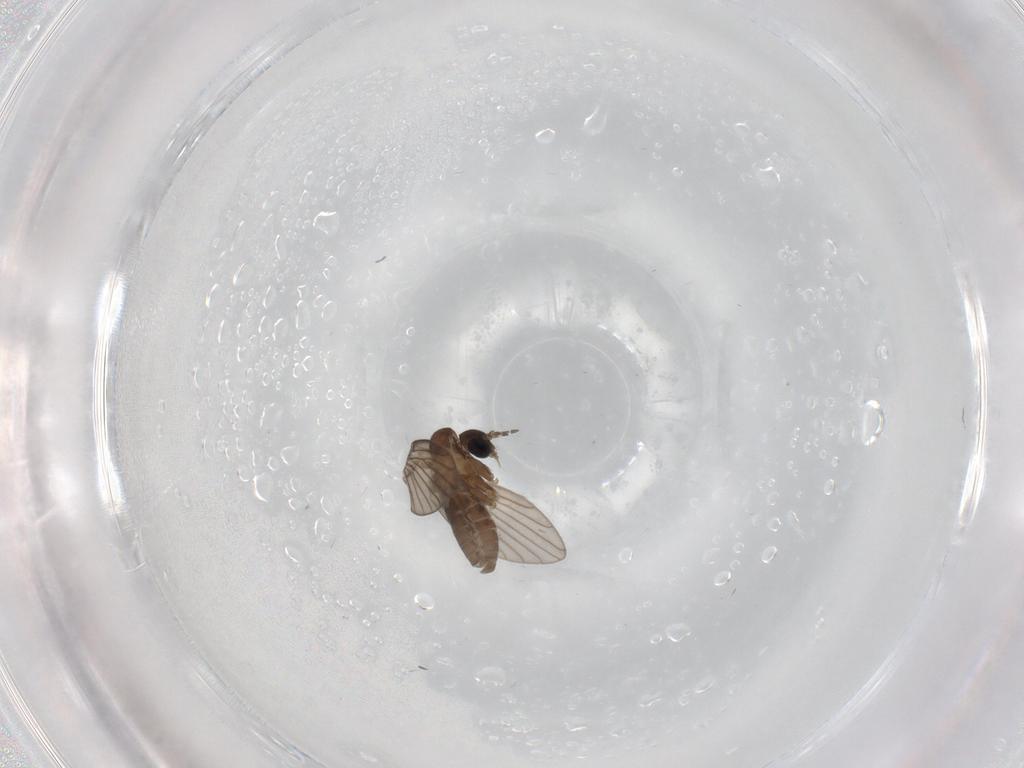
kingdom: Animalia
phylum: Arthropoda
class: Insecta
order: Diptera
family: Psychodidae
